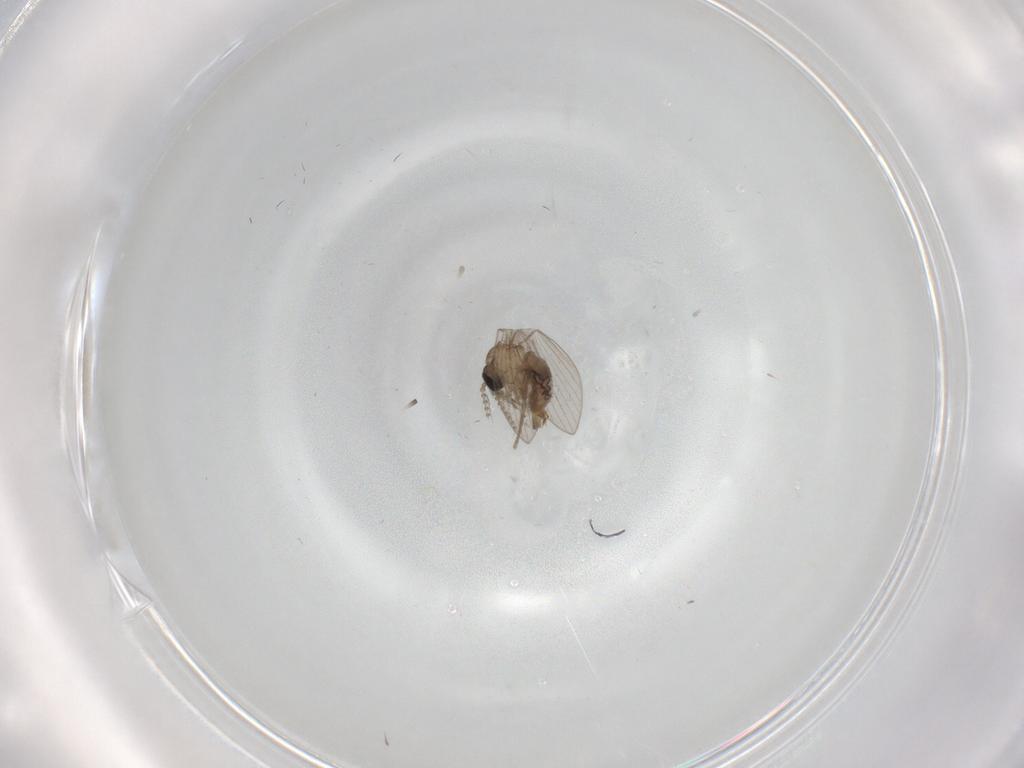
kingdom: Animalia
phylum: Arthropoda
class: Insecta
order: Diptera
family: Psychodidae
